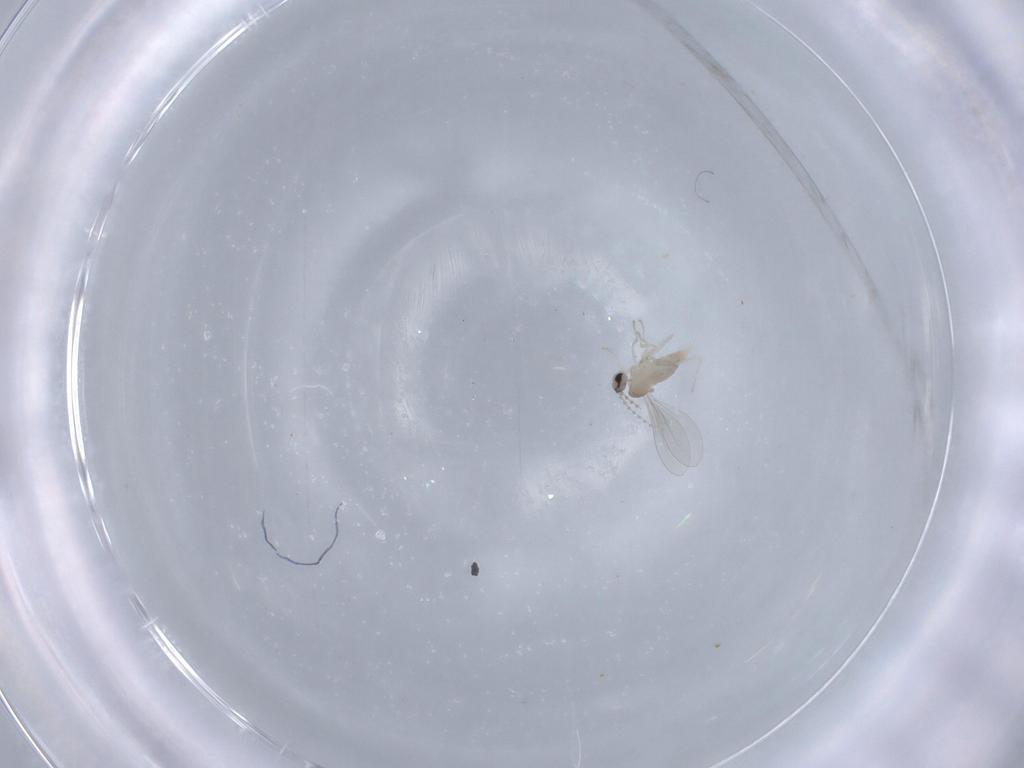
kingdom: Animalia
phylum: Arthropoda
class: Insecta
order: Diptera
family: Cecidomyiidae
